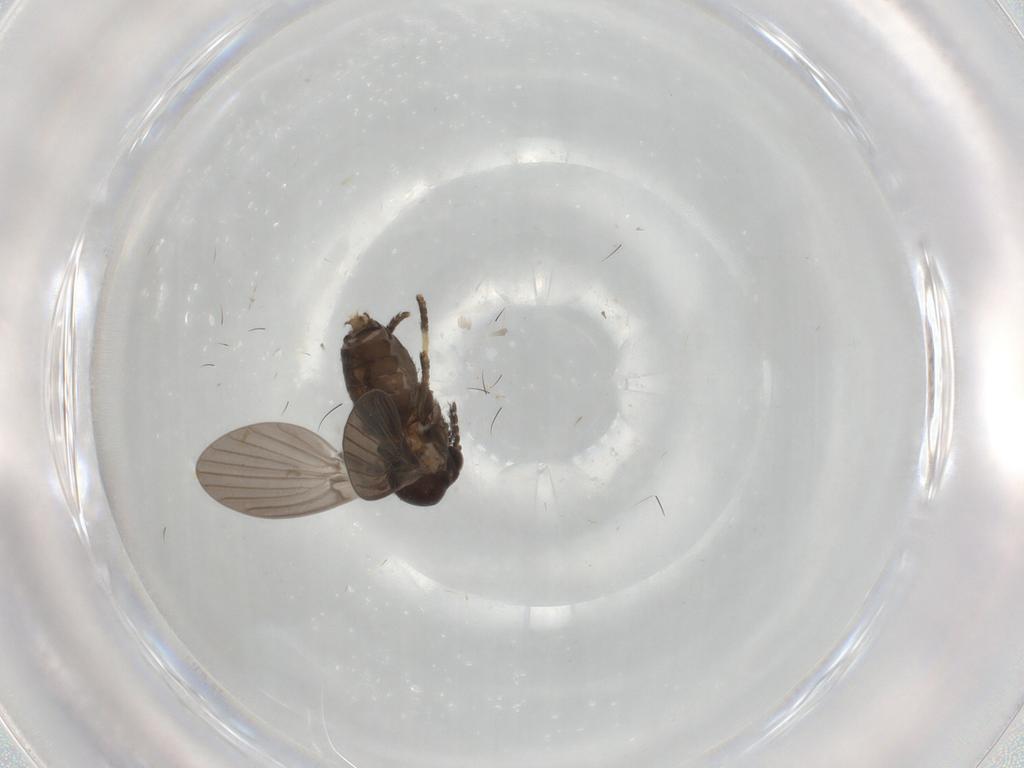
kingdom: Animalia
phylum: Arthropoda
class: Insecta
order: Diptera
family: Psychodidae
